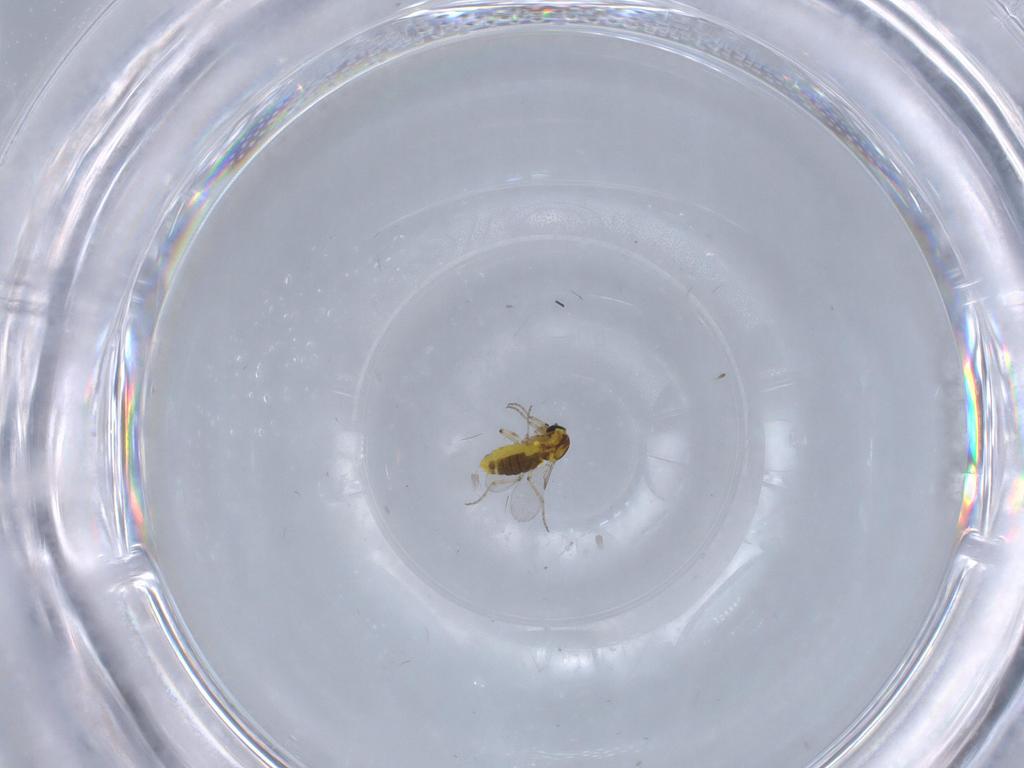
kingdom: Animalia
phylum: Arthropoda
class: Insecta
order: Diptera
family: Ceratopogonidae
